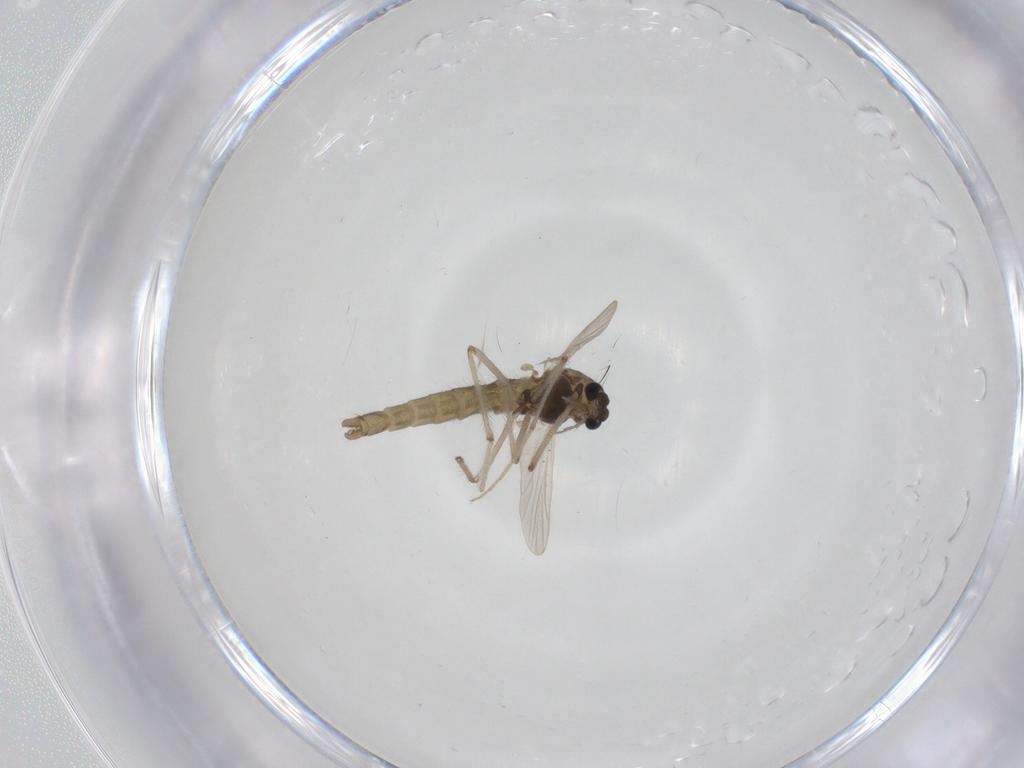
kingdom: Animalia
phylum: Arthropoda
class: Insecta
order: Diptera
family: Chironomidae
